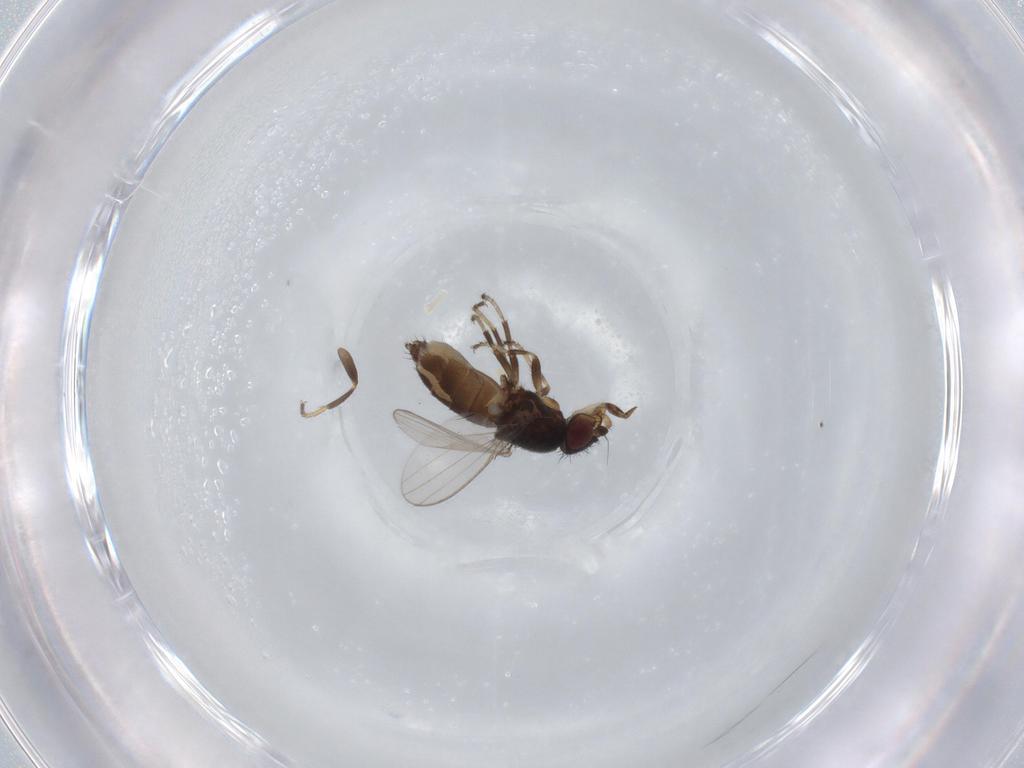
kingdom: Animalia
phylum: Arthropoda
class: Insecta
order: Diptera
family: Milichiidae
